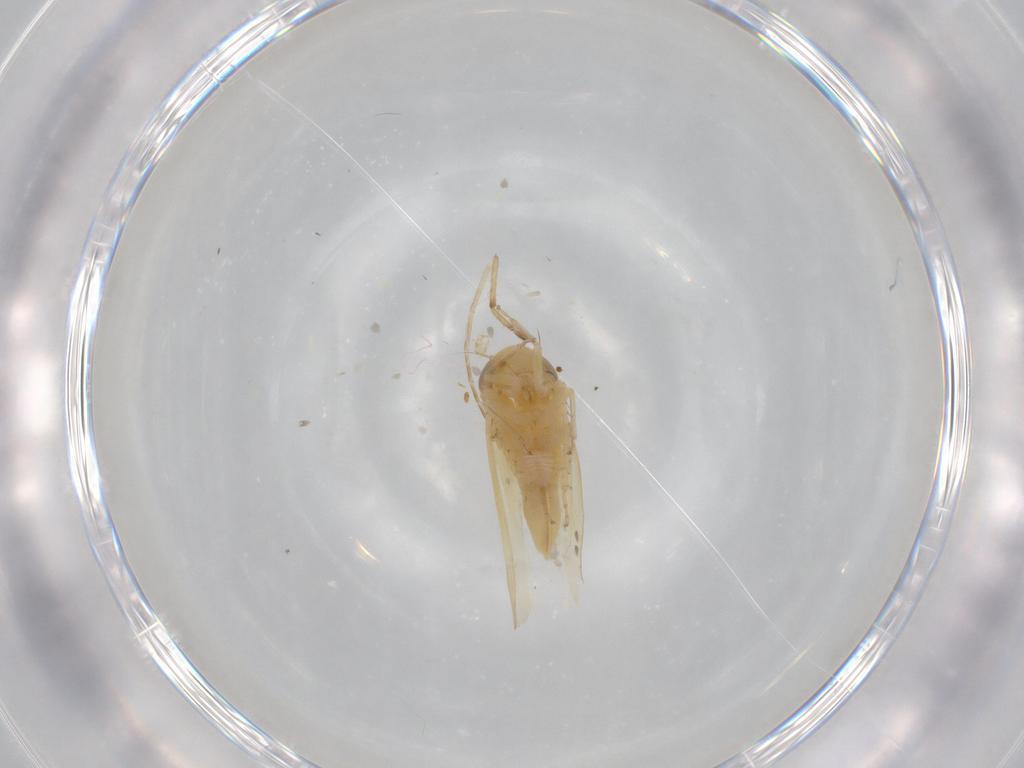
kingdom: Animalia
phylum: Arthropoda
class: Insecta
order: Hemiptera
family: Cicadellidae
